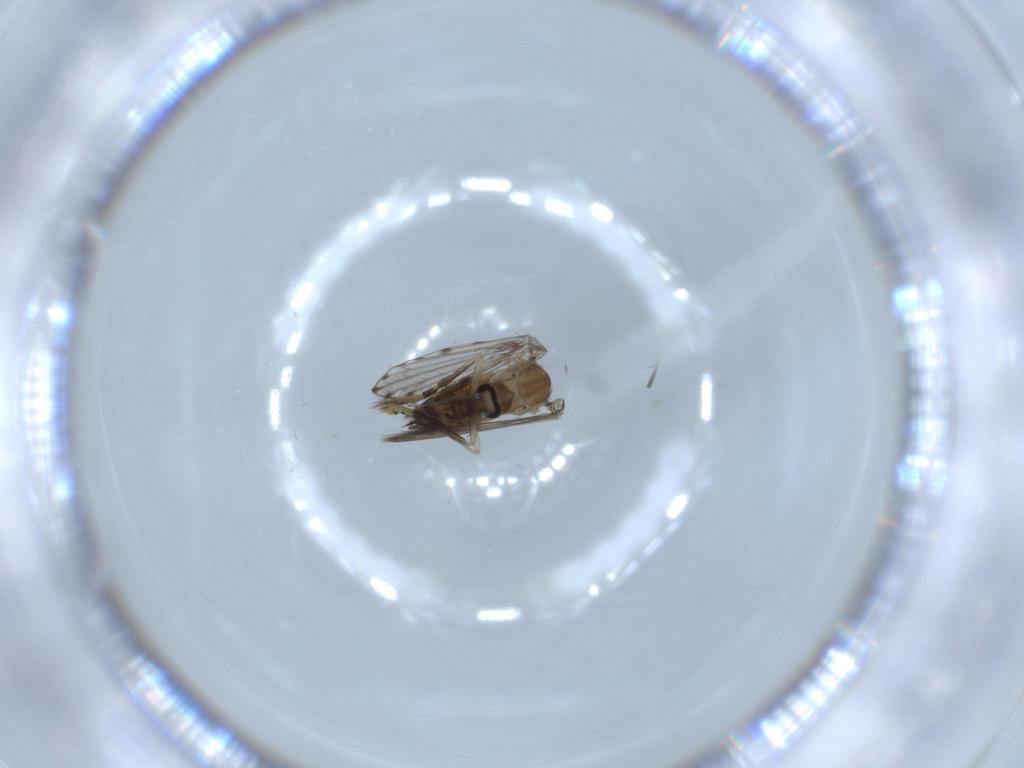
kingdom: Animalia
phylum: Arthropoda
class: Insecta
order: Diptera
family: Psychodidae
